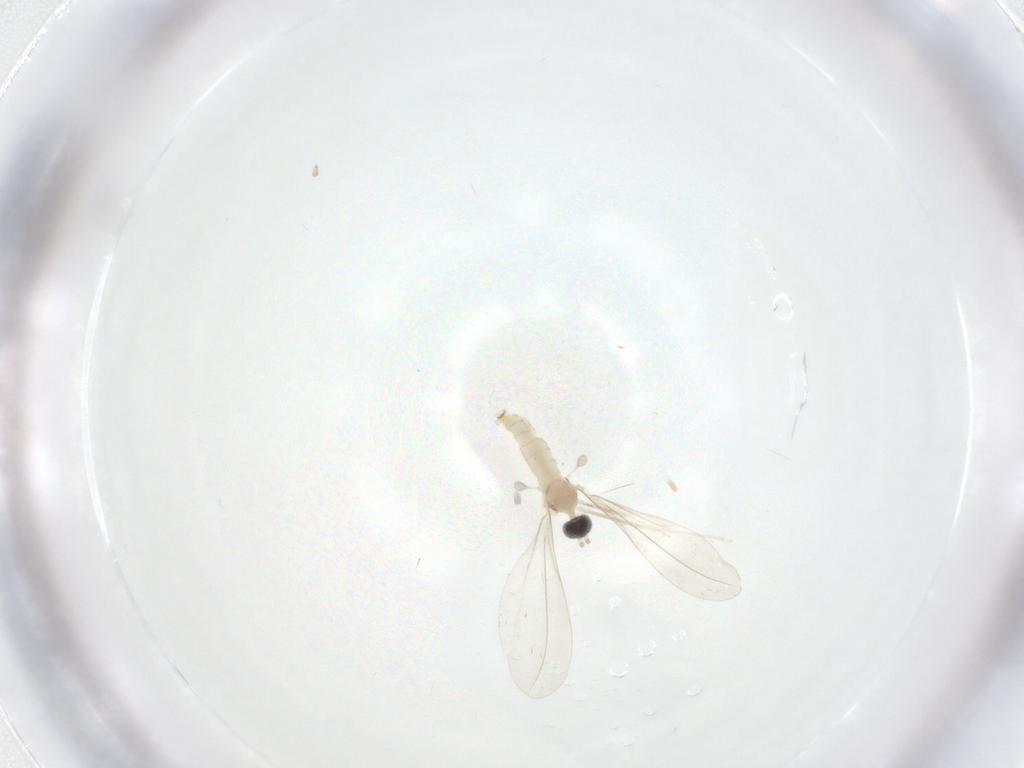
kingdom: Animalia
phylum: Arthropoda
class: Insecta
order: Diptera
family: Cecidomyiidae
